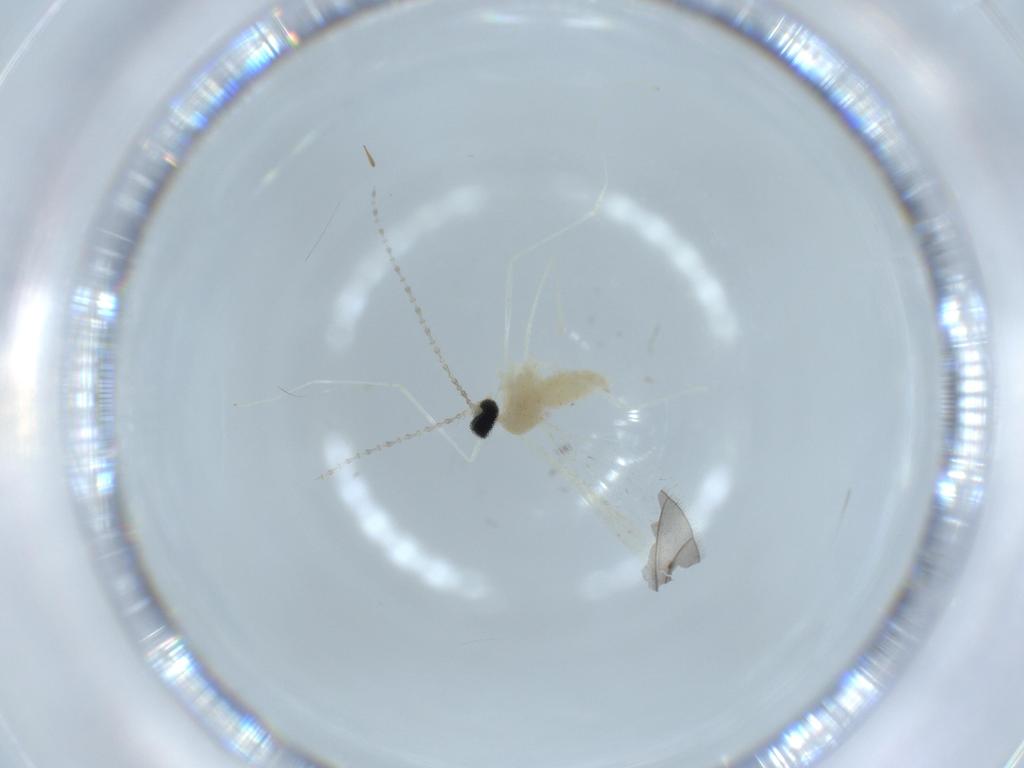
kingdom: Animalia
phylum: Arthropoda
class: Insecta
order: Diptera
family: Cecidomyiidae
